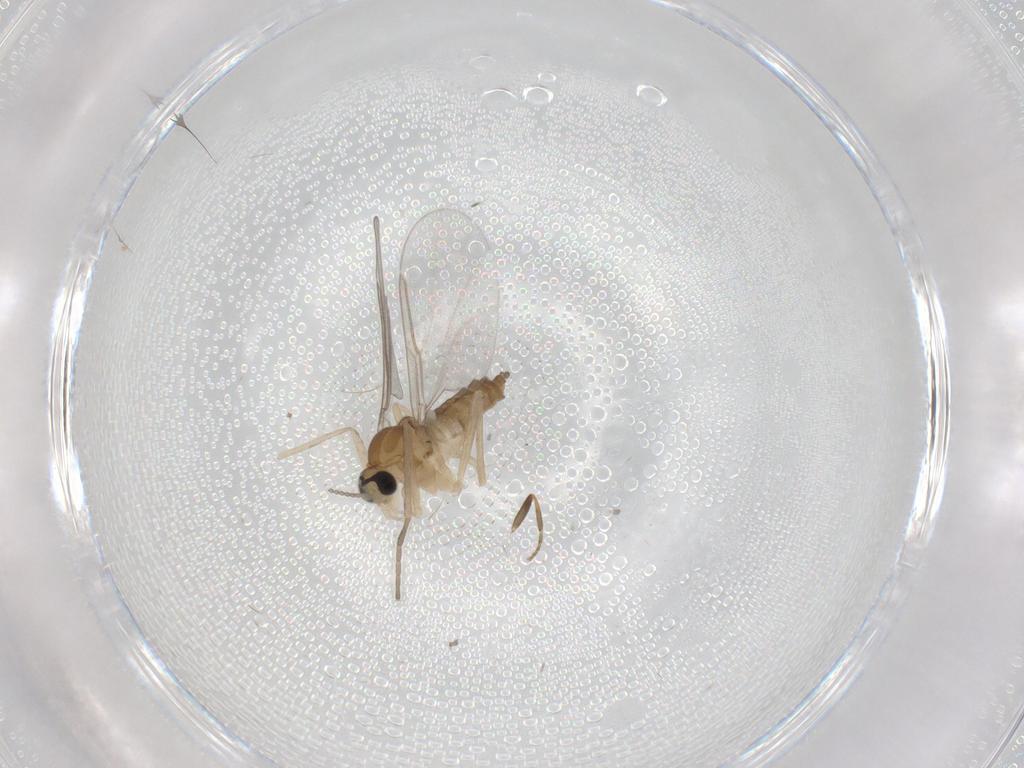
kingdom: Animalia
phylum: Arthropoda
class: Insecta
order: Diptera
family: Cecidomyiidae
